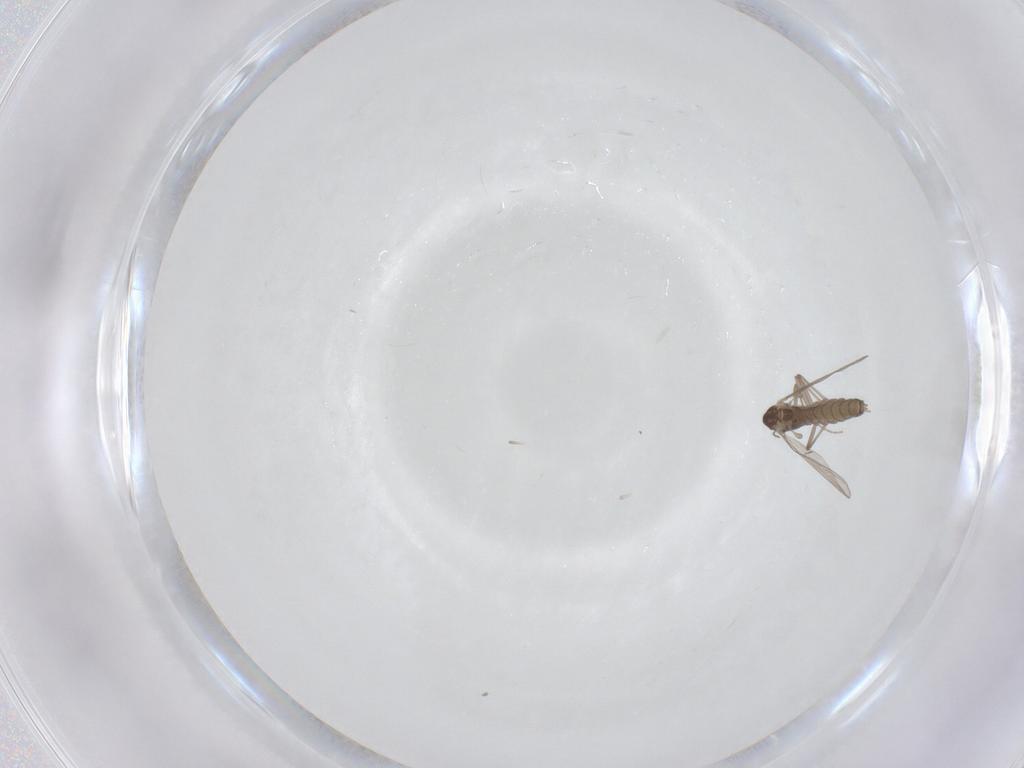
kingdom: Animalia
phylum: Arthropoda
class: Insecta
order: Diptera
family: Chironomidae
